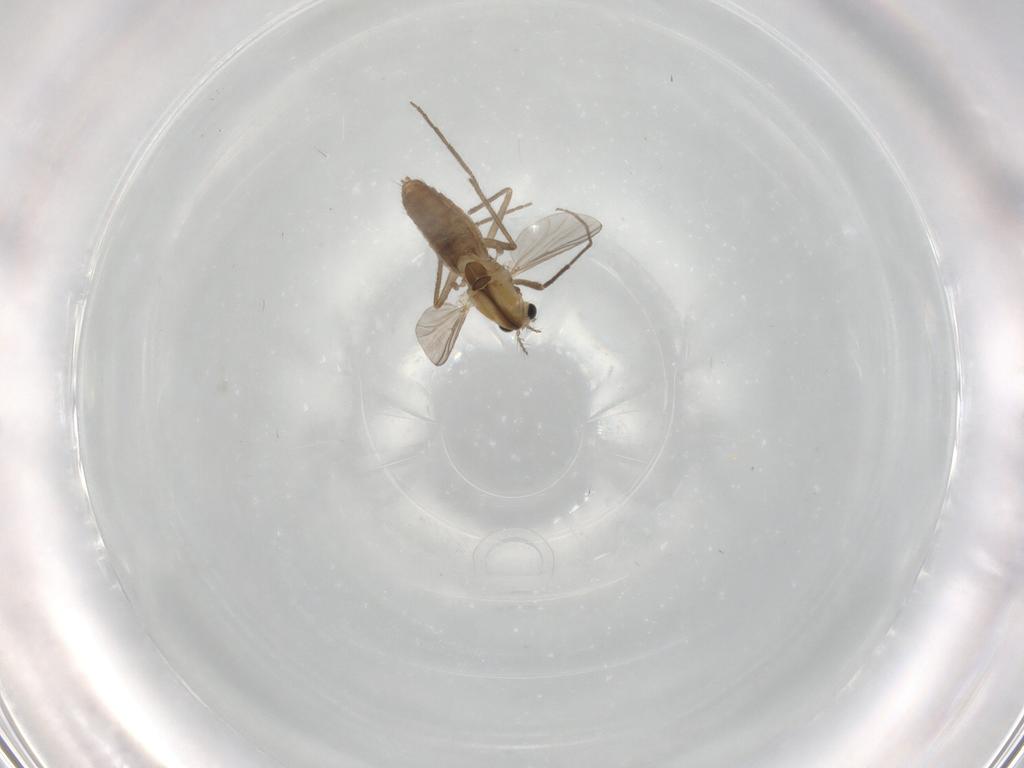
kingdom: Animalia
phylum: Arthropoda
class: Insecta
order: Diptera
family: Chironomidae
